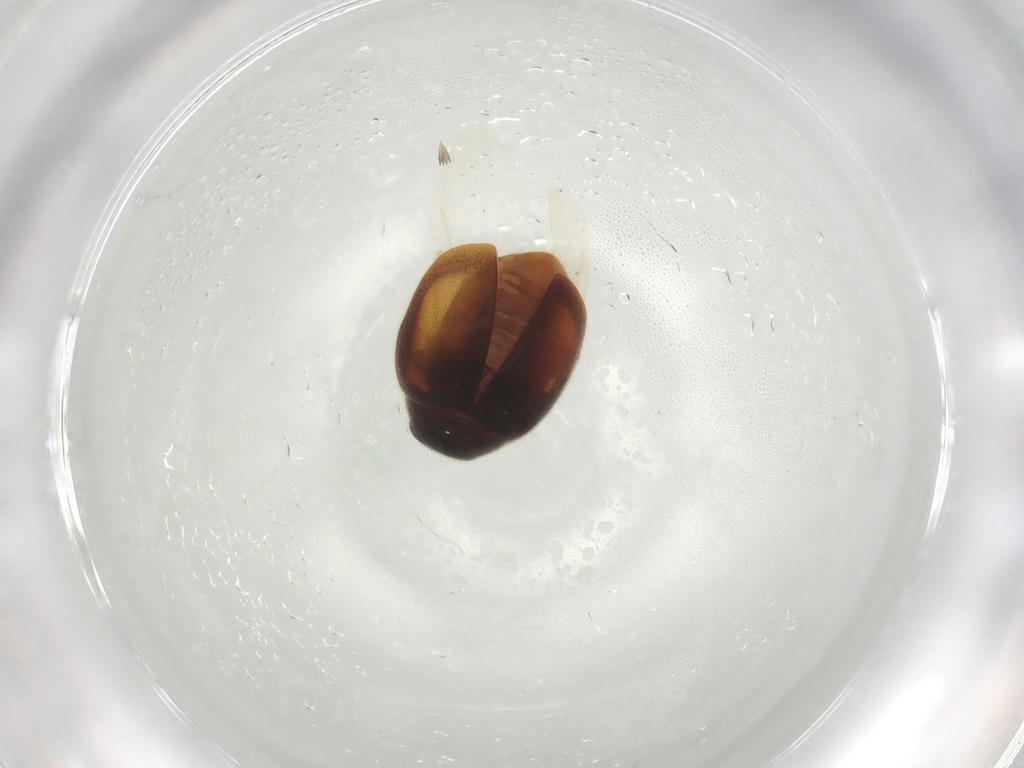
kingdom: Animalia
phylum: Arthropoda
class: Insecta
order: Coleoptera
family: Coccinellidae
